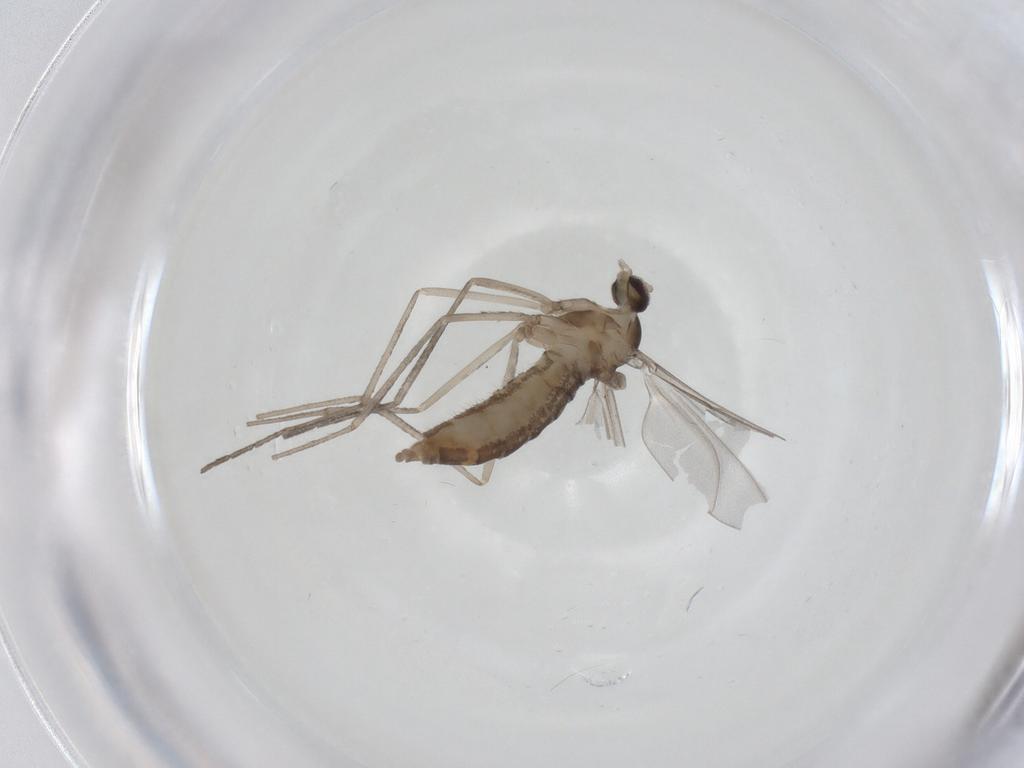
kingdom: Animalia
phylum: Arthropoda
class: Insecta
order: Diptera
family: Cecidomyiidae
